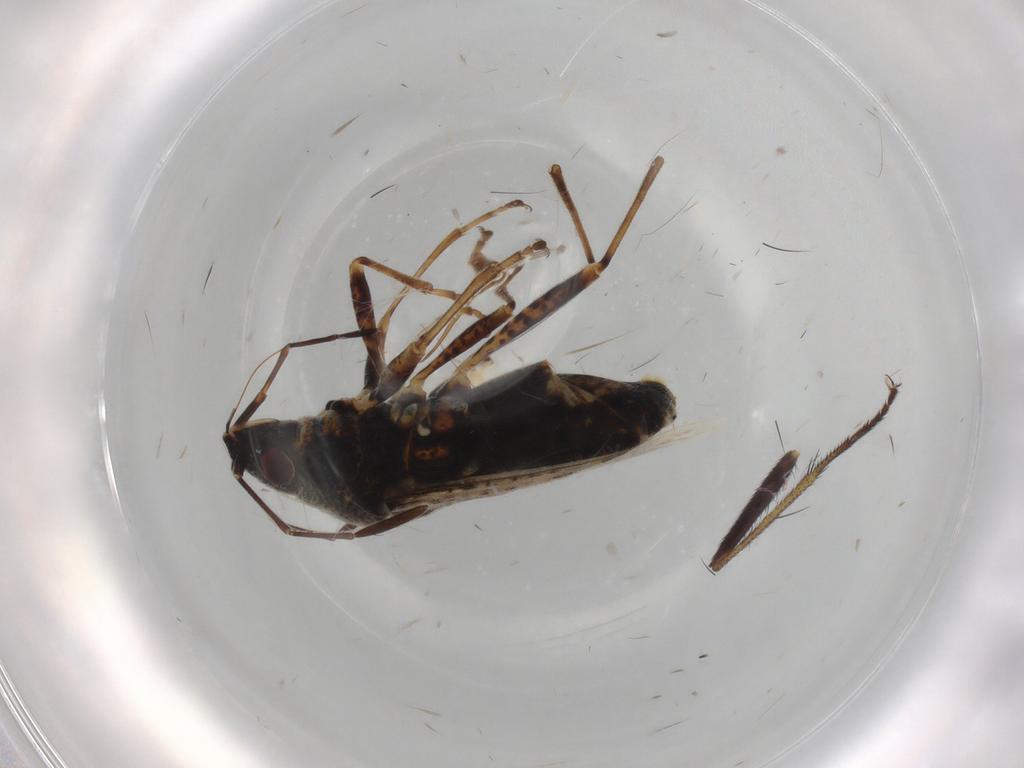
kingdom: Animalia
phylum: Arthropoda
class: Insecta
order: Hemiptera
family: Lygaeidae
